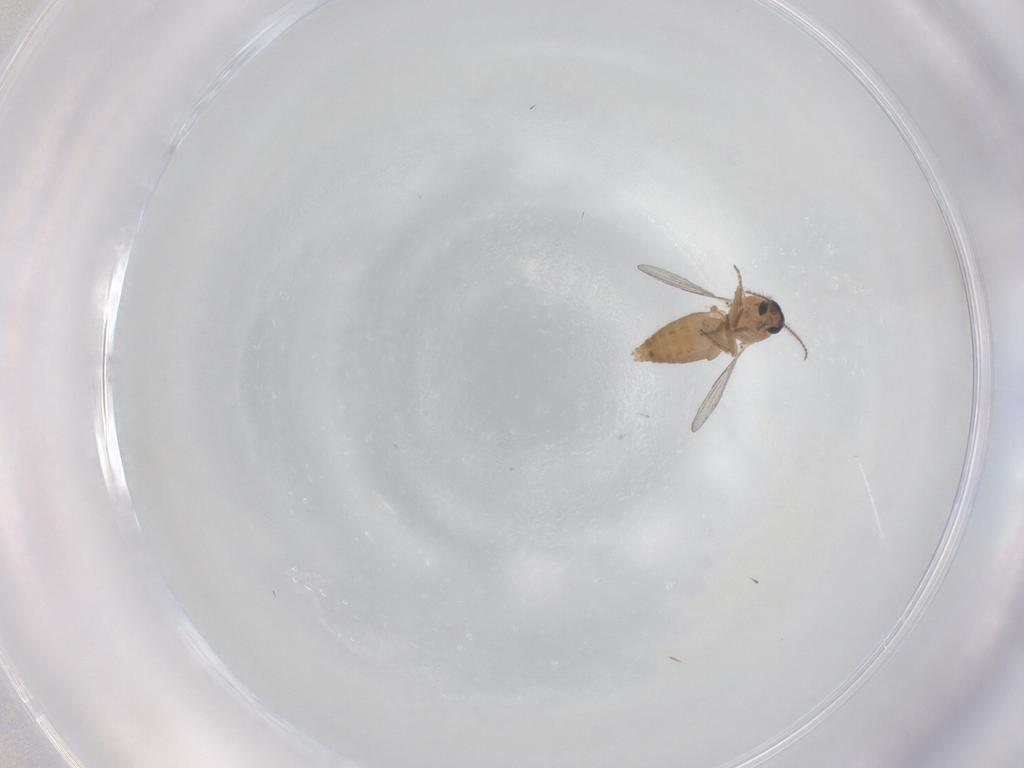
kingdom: Animalia
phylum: Arthropoda
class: Insecta
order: Diptera
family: Ceratopogonidae
